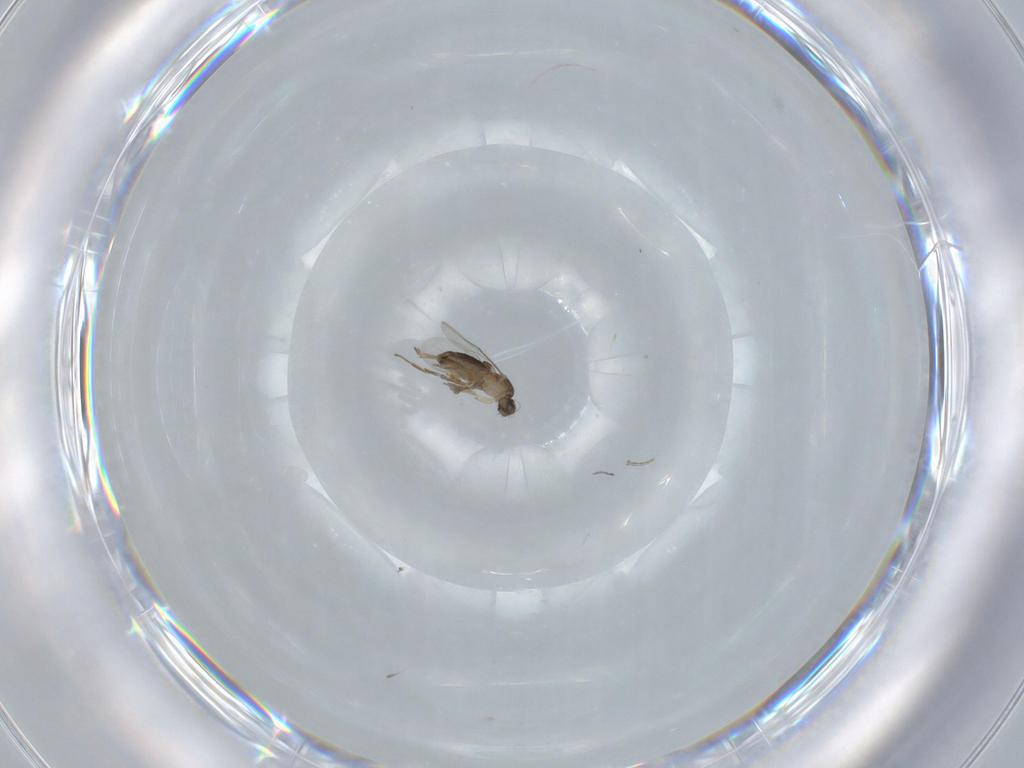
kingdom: Animalia
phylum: Arthropoda
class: Insecta
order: Diptera
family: Phoridae
